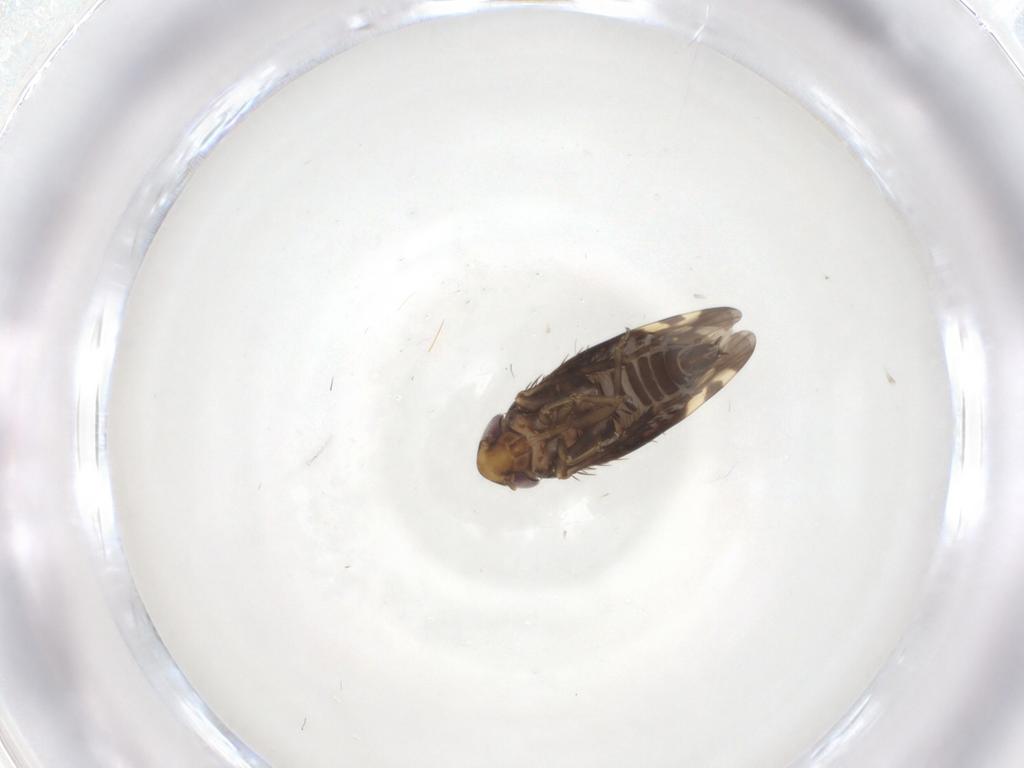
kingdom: Animalia
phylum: Arthropoda
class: Insecta
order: Hemiptera
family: Cicadellidae
